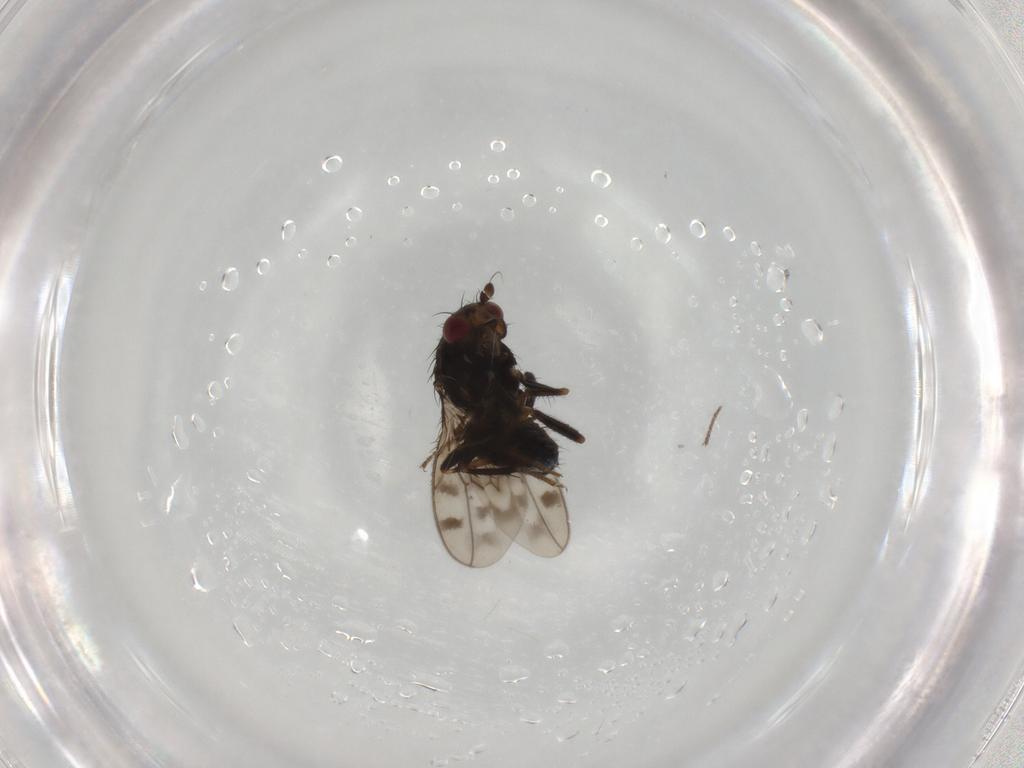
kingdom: Animalia
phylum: Arthropoda
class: Insecta
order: Diptera
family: Sphaeroceridae
